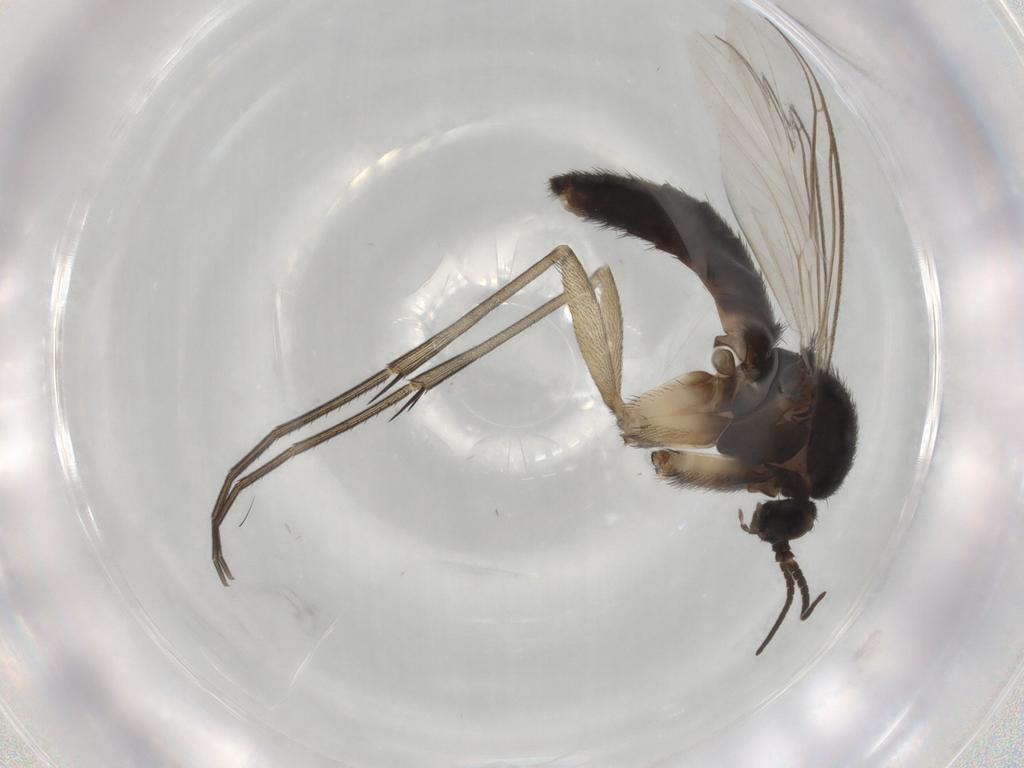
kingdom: Animalia
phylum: Arthropoda
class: Insecta
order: Diptera
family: Keroplatidae
